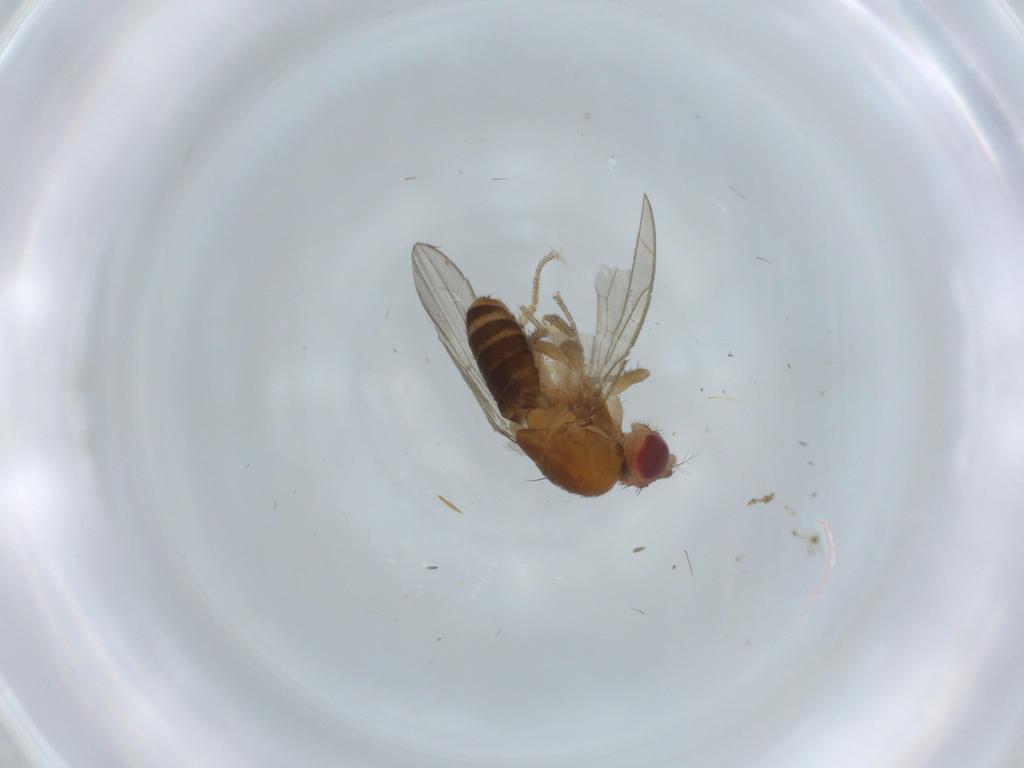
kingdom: Animalia
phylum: Arthropoda
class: Insecta
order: Diptera
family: Drosophilidae
